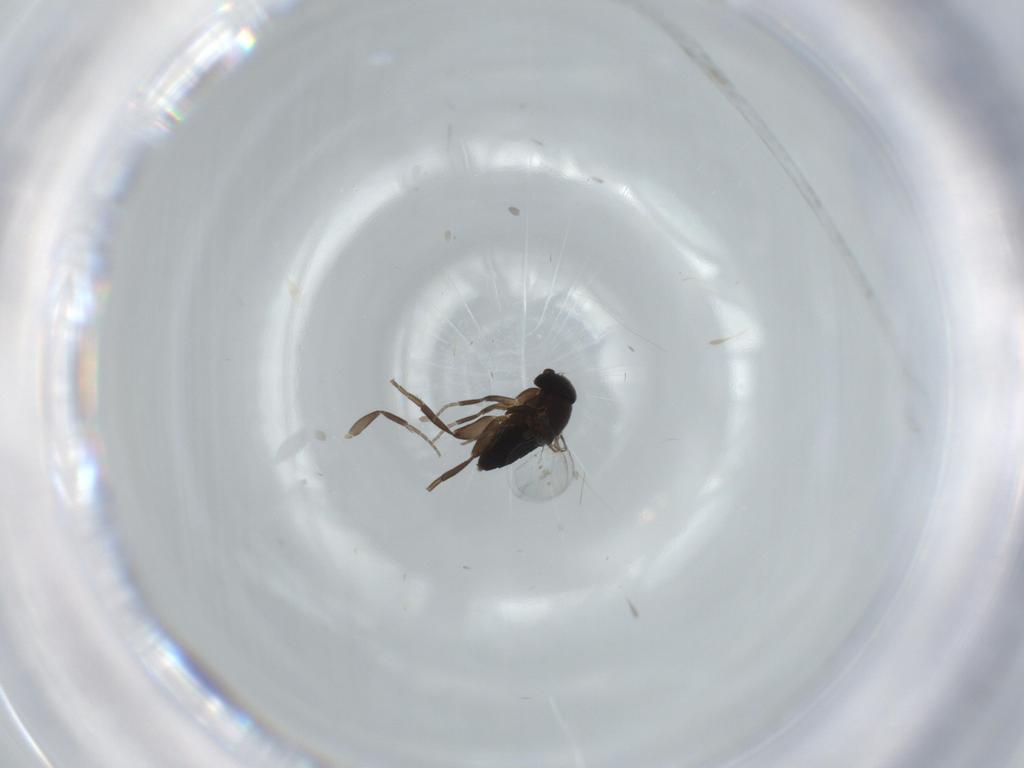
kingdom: Animalia
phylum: Arthropoda
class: Insecta
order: Diptera
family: Phoridae
